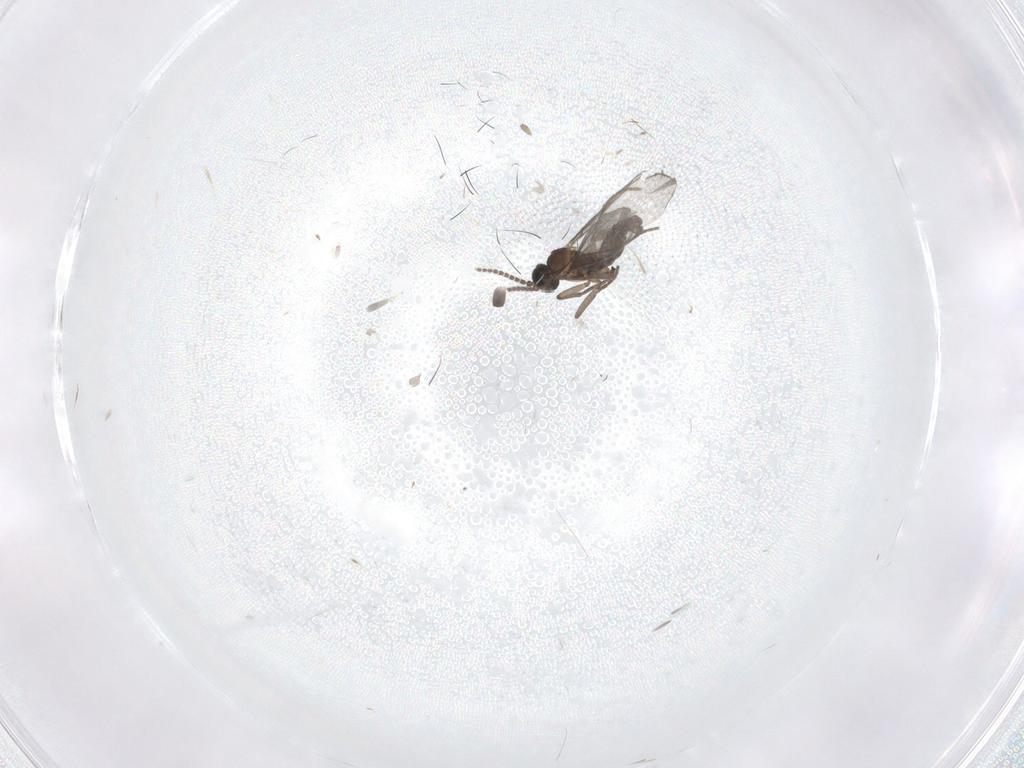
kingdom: Animalia
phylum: Arthropoda
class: Insecta
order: Diptera
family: Sciaridae
